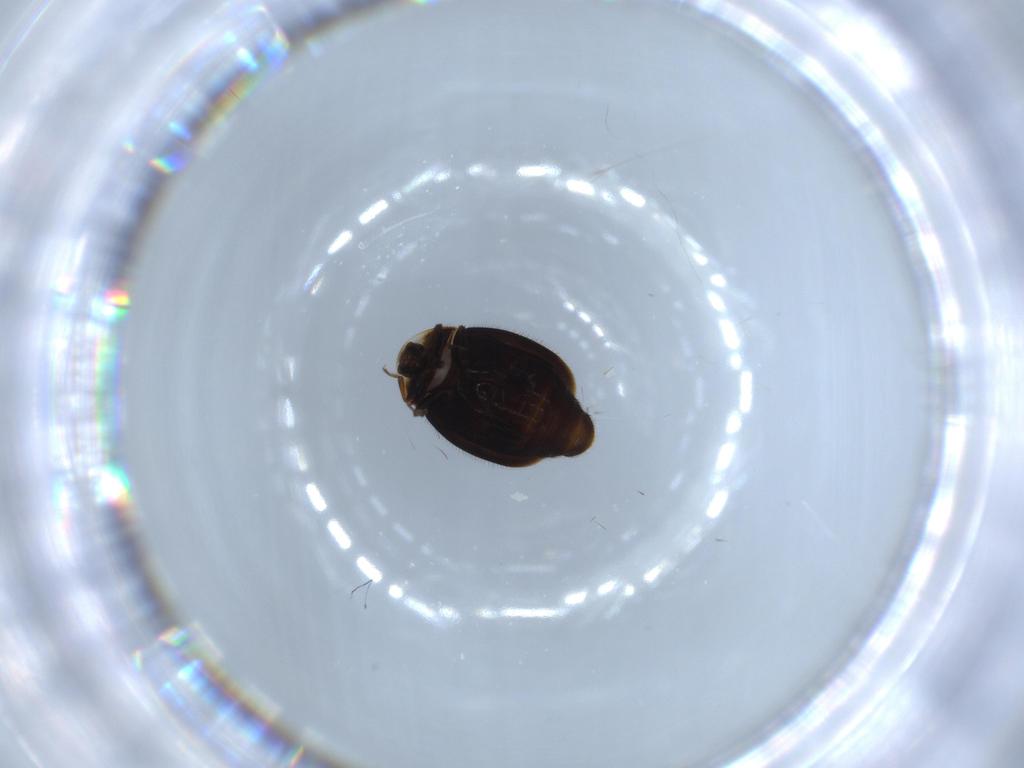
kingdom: Animalia
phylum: Arthropoda
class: Insecta
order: Coleoptera
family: Corylophidae
